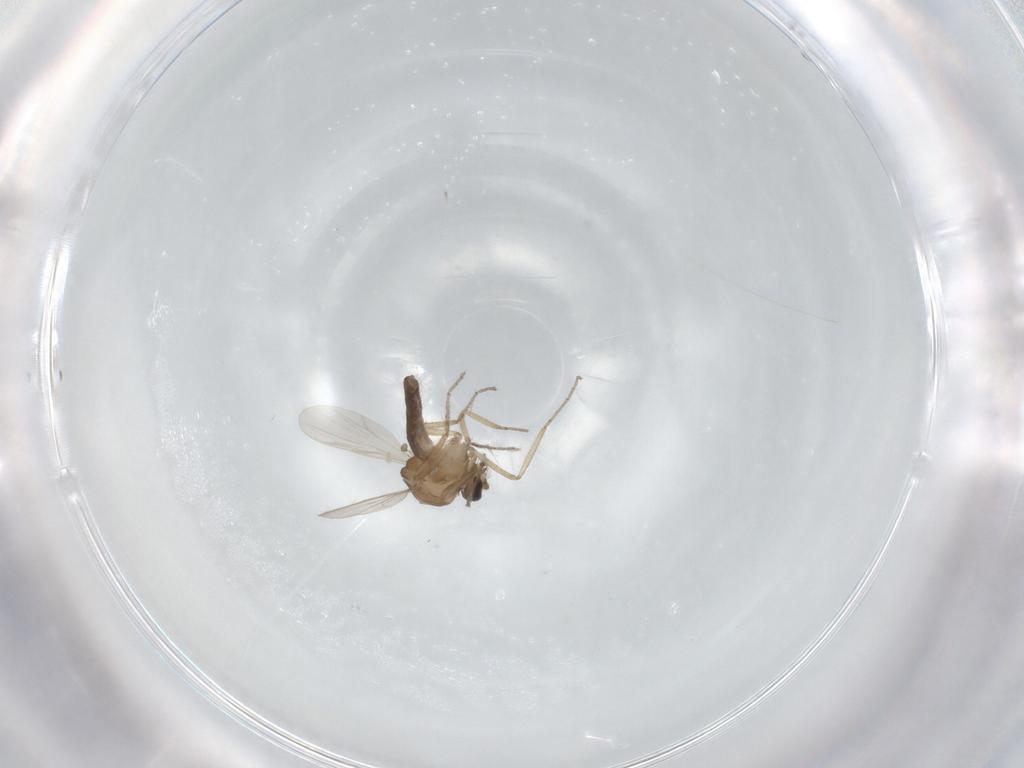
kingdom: Animalia
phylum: Arthropoda
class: Insecta
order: Diptera
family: Ceratopogonidae
